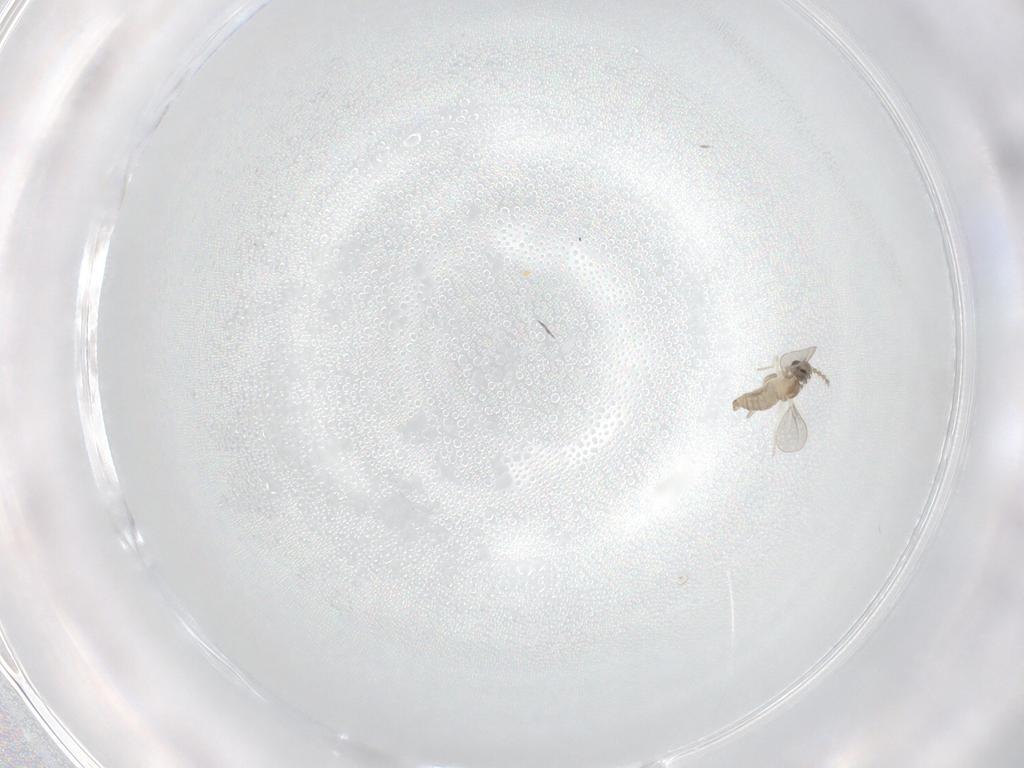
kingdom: Animalia
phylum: Arthropoda
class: Insecta
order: Diptera
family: Cecidomyiidae
